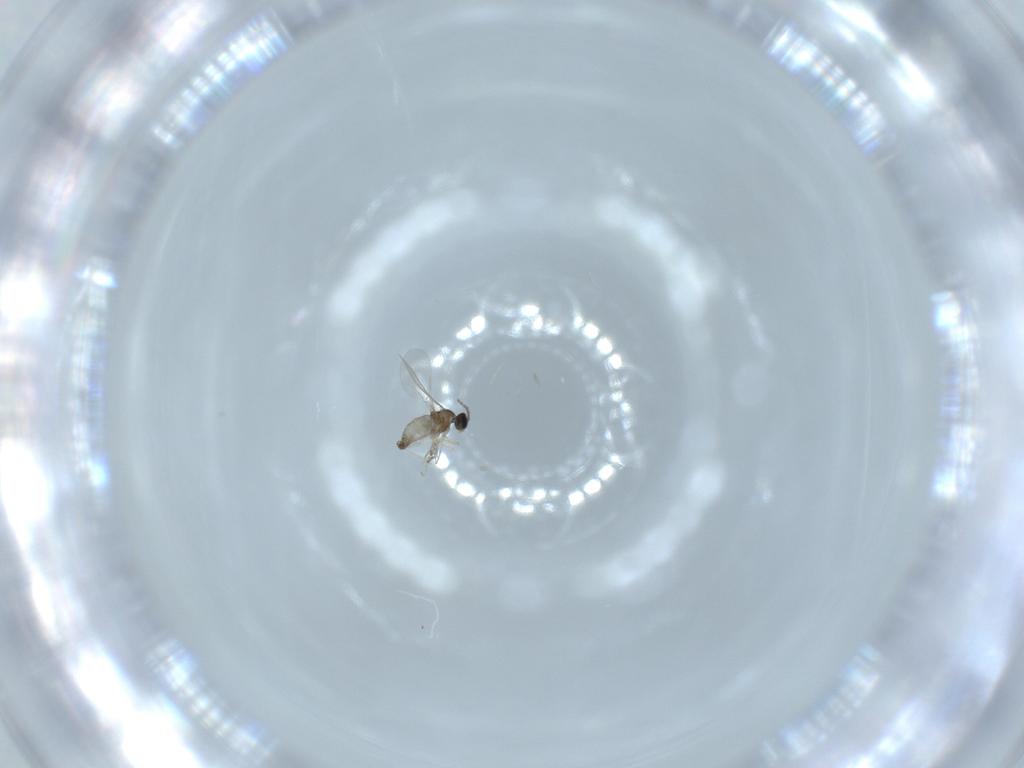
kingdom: Animalia
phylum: Arthropoda
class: Insecta
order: Diptera
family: Cecidomyiidae
